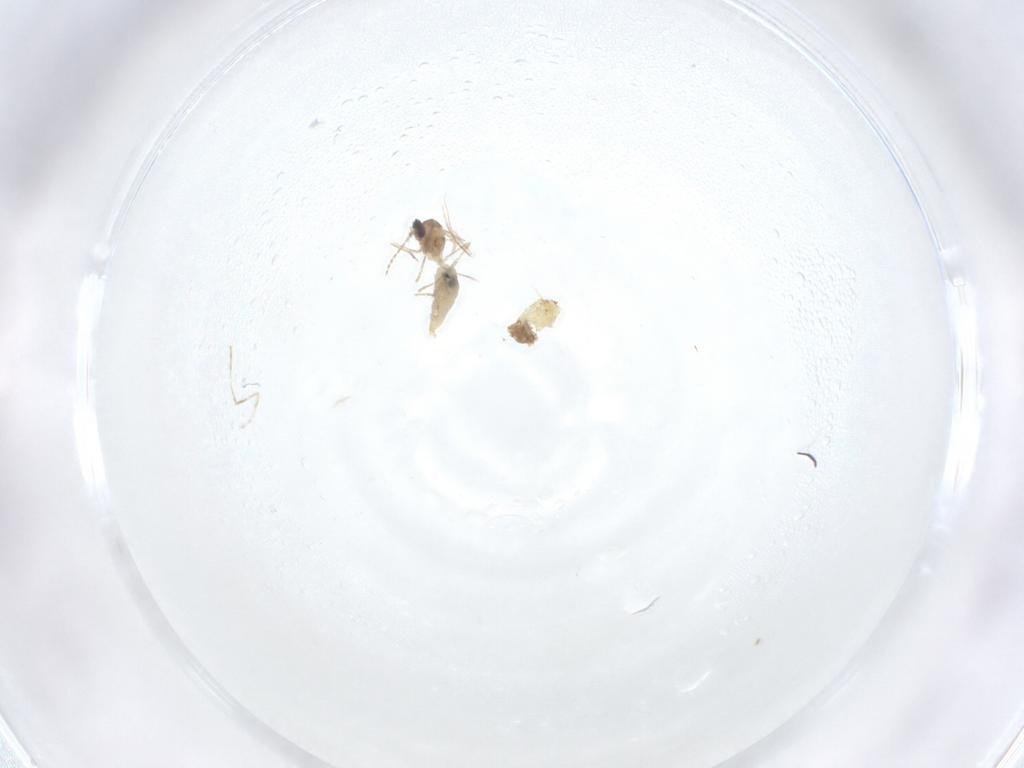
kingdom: Animalia
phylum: Arthropoda
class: Insecta
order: Diptera
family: Cecidomyiidae
